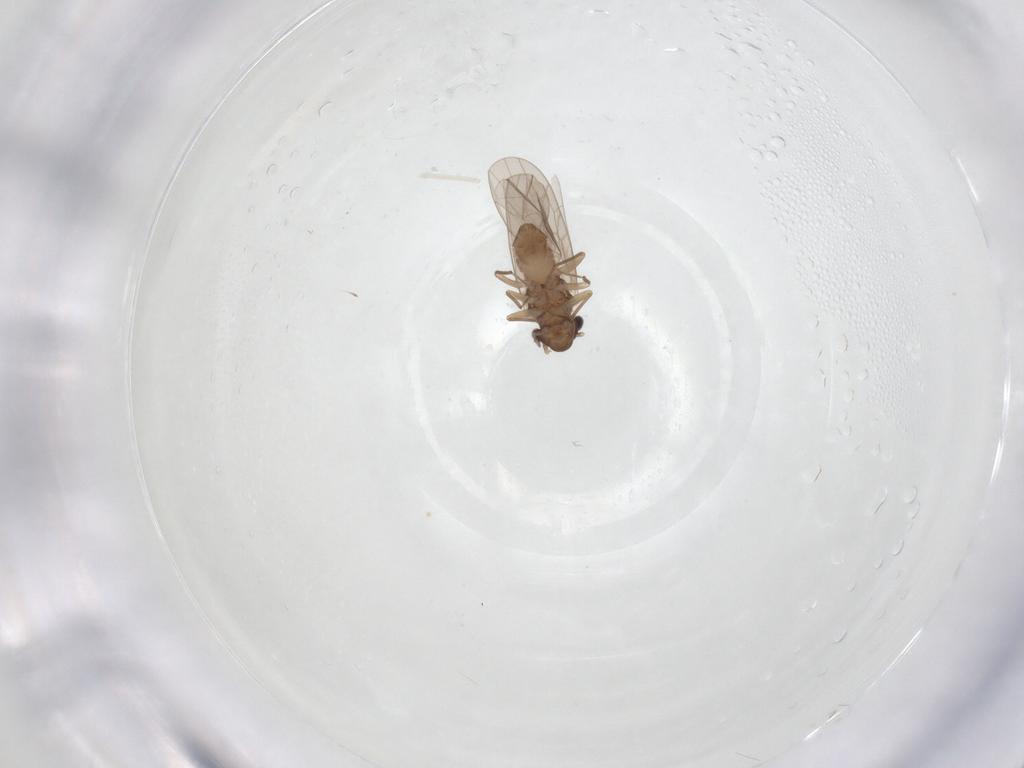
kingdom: Animalia
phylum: Arthropoda
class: Insecta
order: Psocodea
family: Lepidopsocidae
